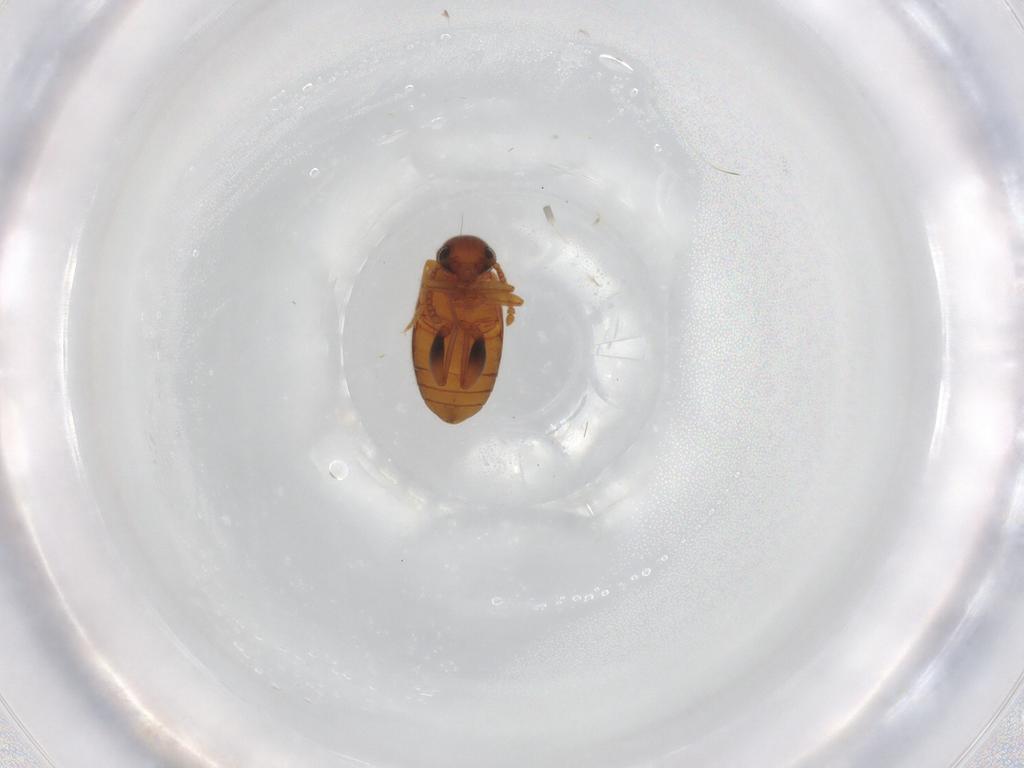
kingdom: Animalia
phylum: Arthropoda
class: Insecta
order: Coleoptera
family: Aderidae
